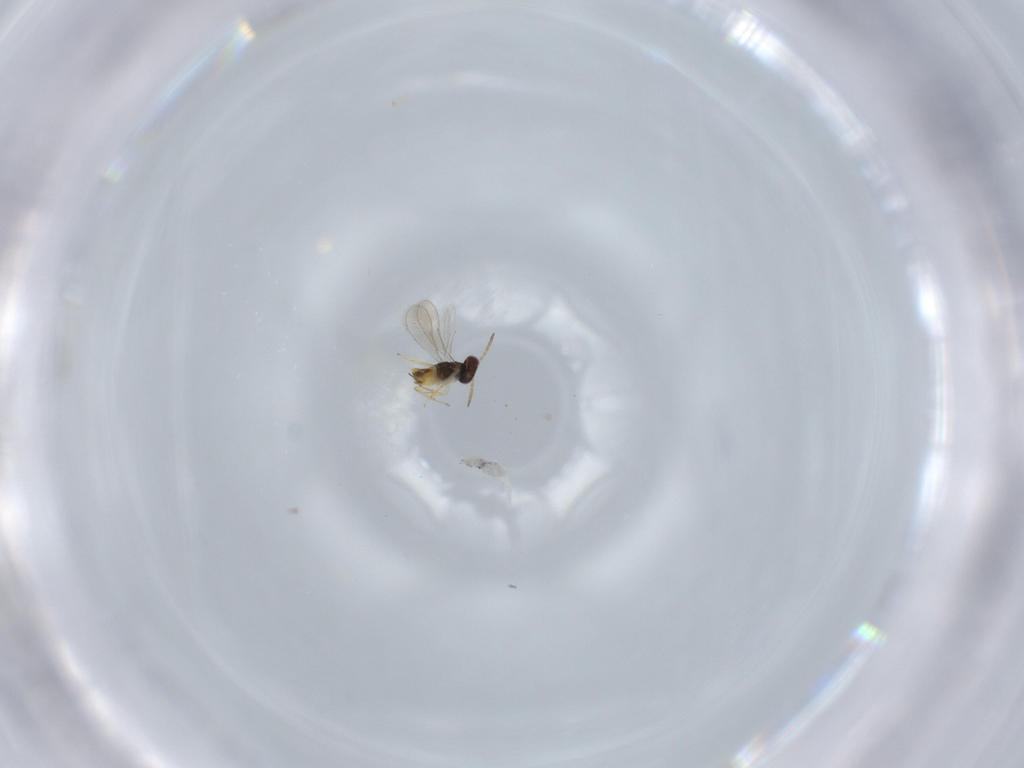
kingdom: Animalia
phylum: Arthropoda
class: Insecta
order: Hymenoptera
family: Aphelinidae
